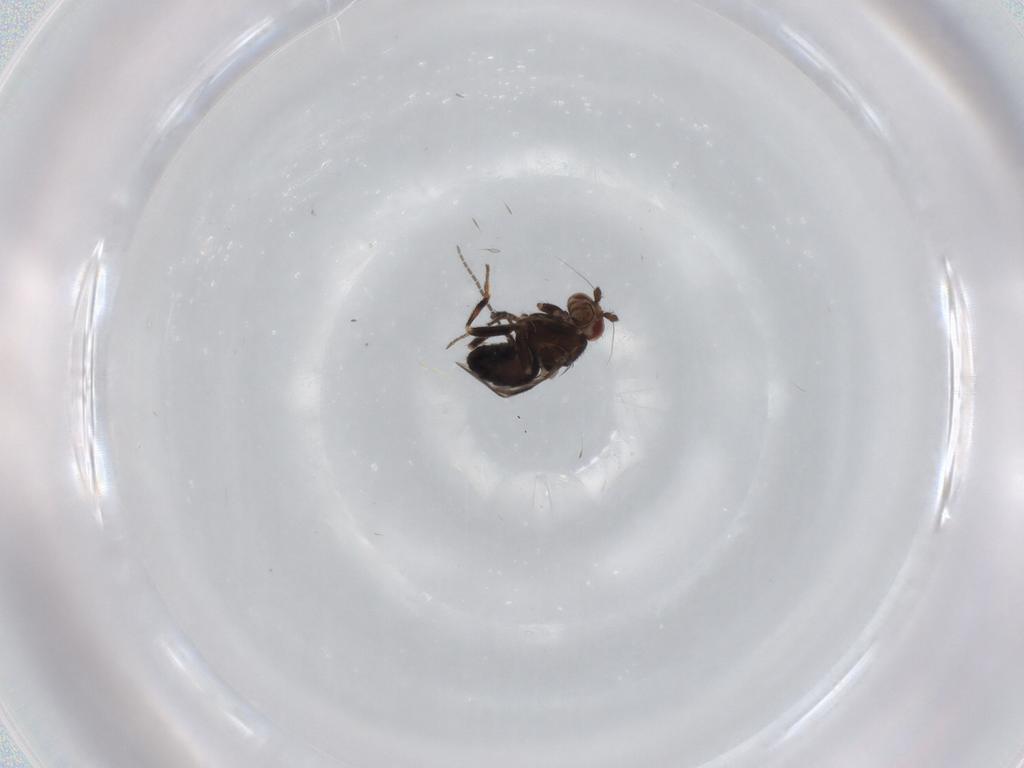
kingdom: Animalia
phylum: Arthropoda
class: Insecta
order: Diptera
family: Sphaeroceridae
